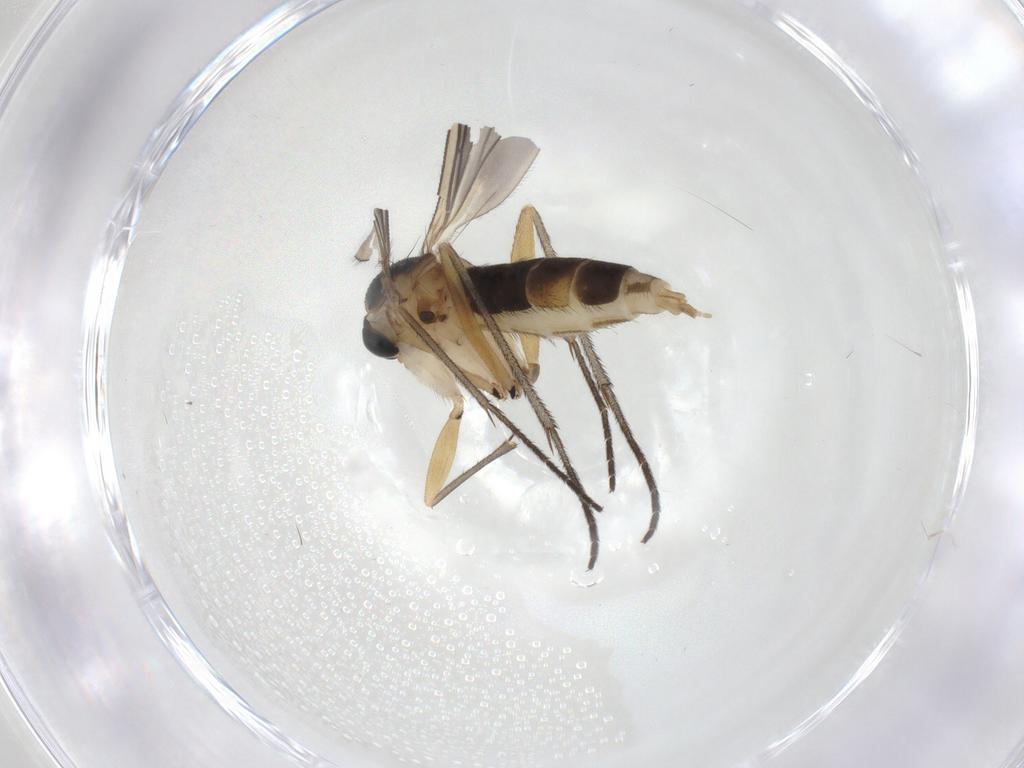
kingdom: Animalia
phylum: Arthropoda
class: Insecta
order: Diptera
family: Sciaridae
